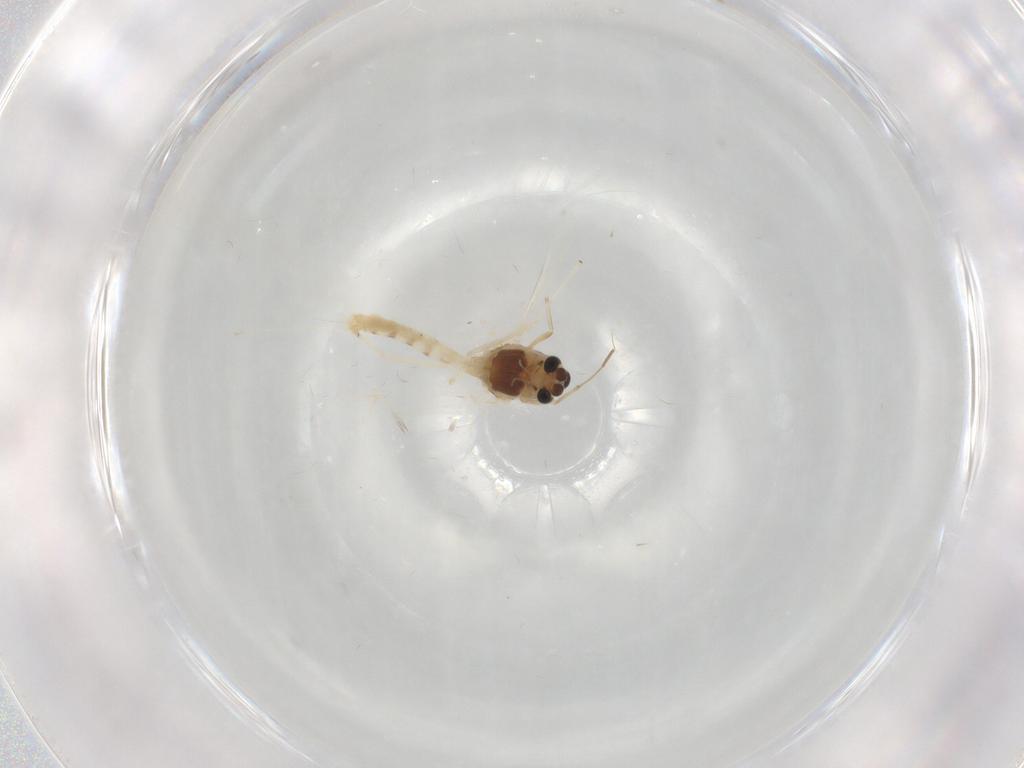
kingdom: Animalia
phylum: Arthropoda
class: Insecta
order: Diptera
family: Chironomidae
